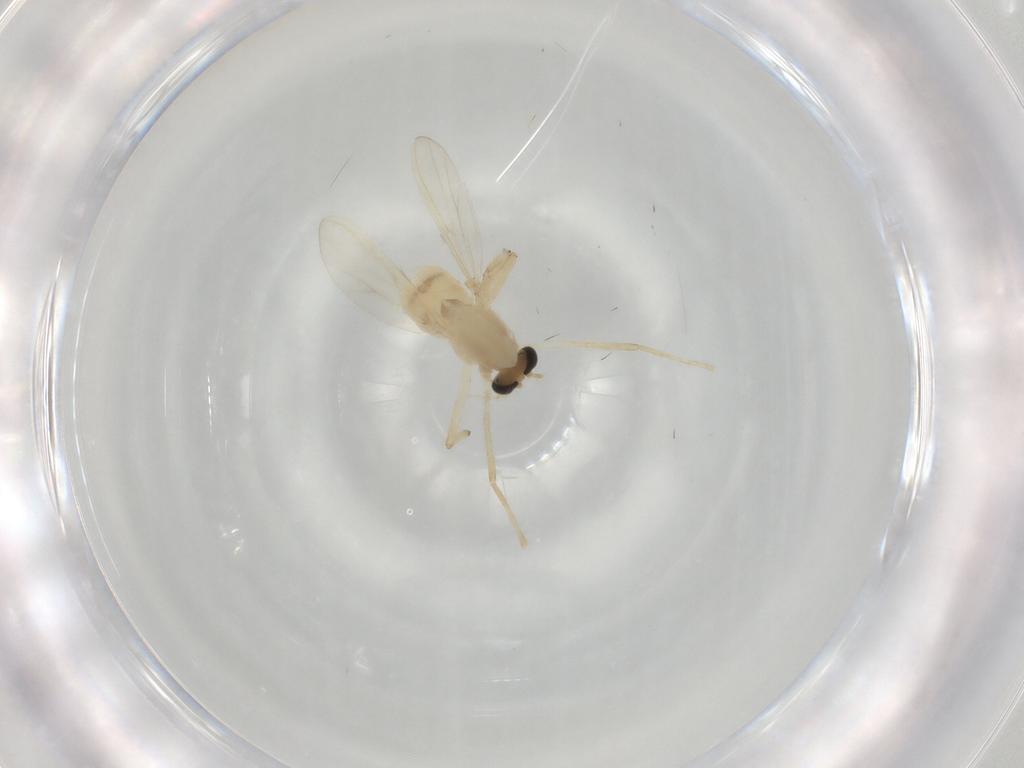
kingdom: Animalia
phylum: Arthropoda
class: Insecta
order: Diptera
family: Chironomidae
